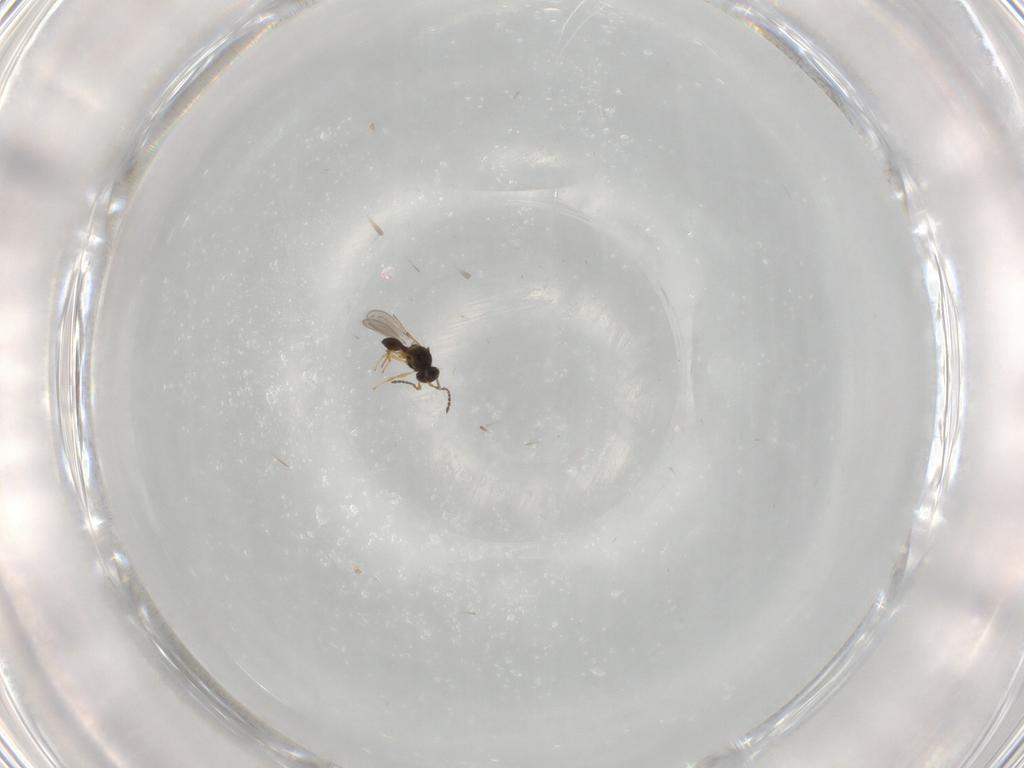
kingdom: Animalia
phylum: Arthropoda
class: Insecta
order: Hymenoptera
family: Platygastridae
